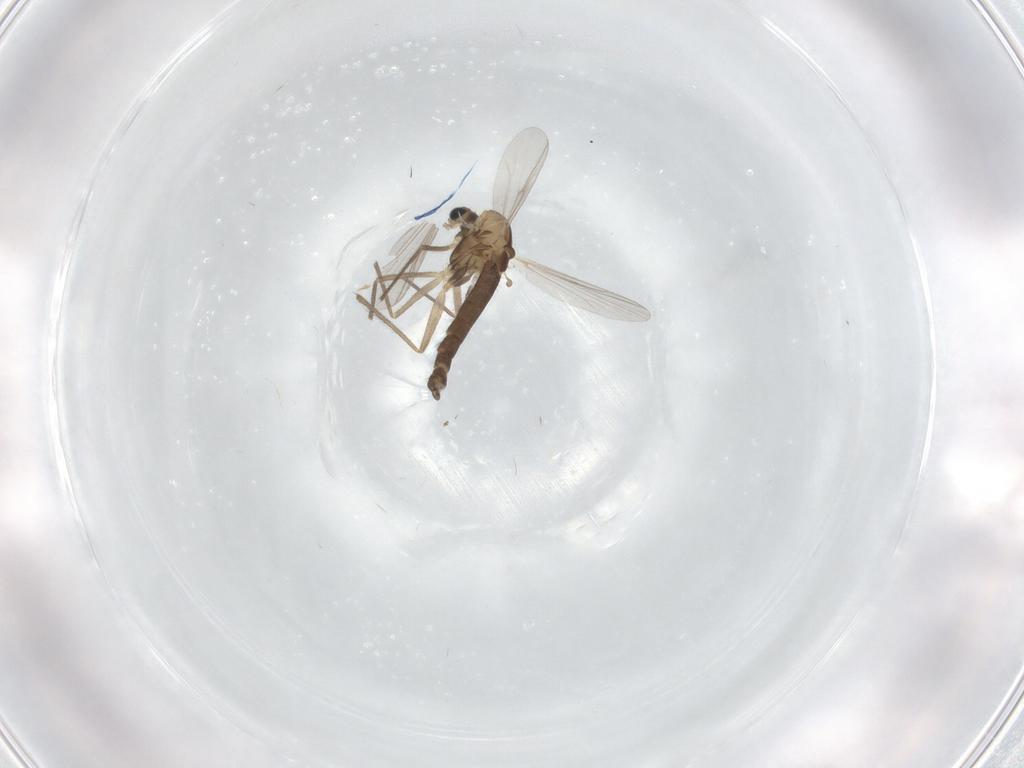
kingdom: Animalia
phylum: Arthropoda
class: Insecta
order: Diptera
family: Chironomidae
